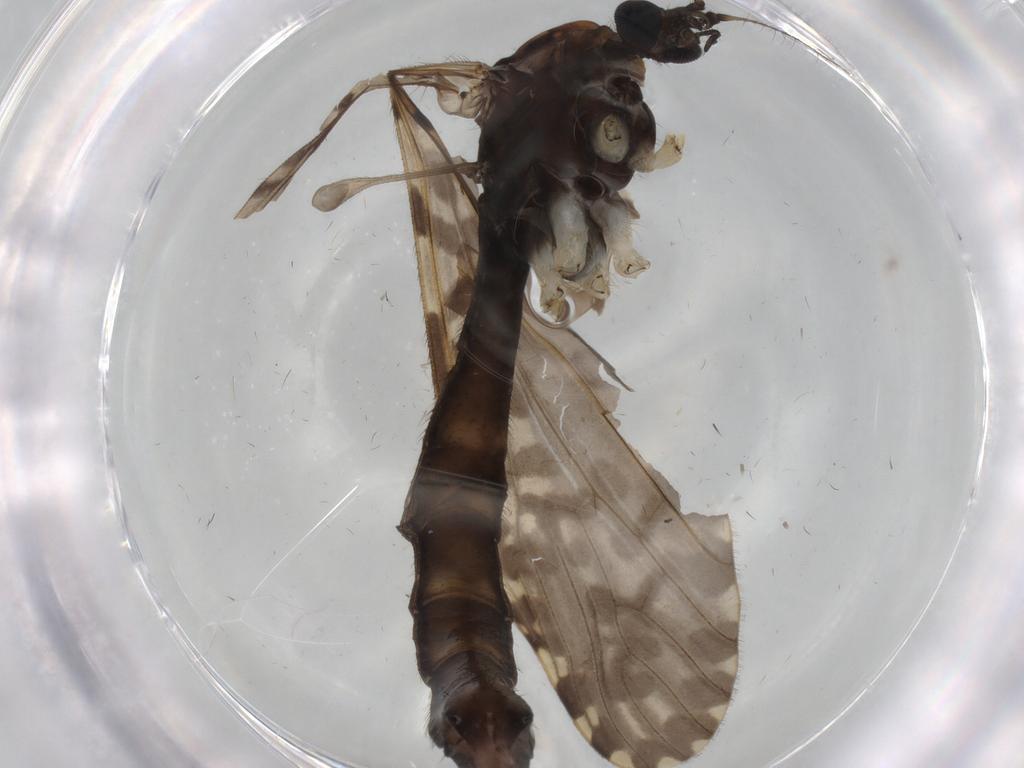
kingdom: Animalia
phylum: Arthropoda
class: Insecta
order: Diptera
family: Cecidomyiidae
